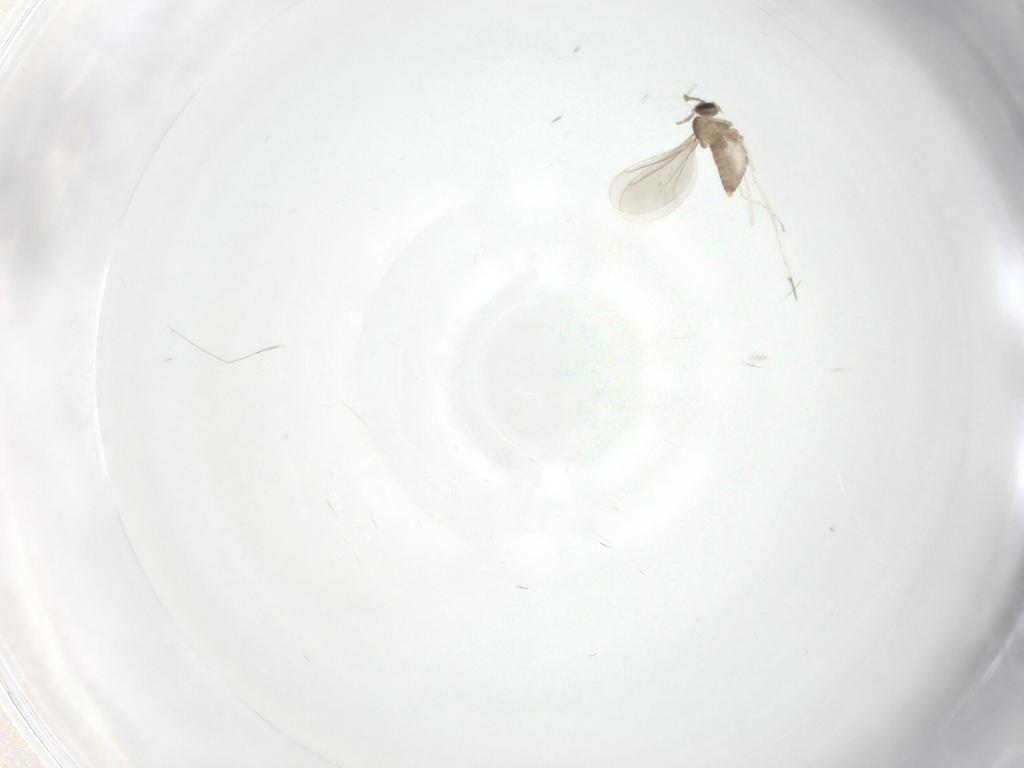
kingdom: Animalia
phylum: Arthropoda
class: Insecta
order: Diptera
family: Cecidomyiidae
